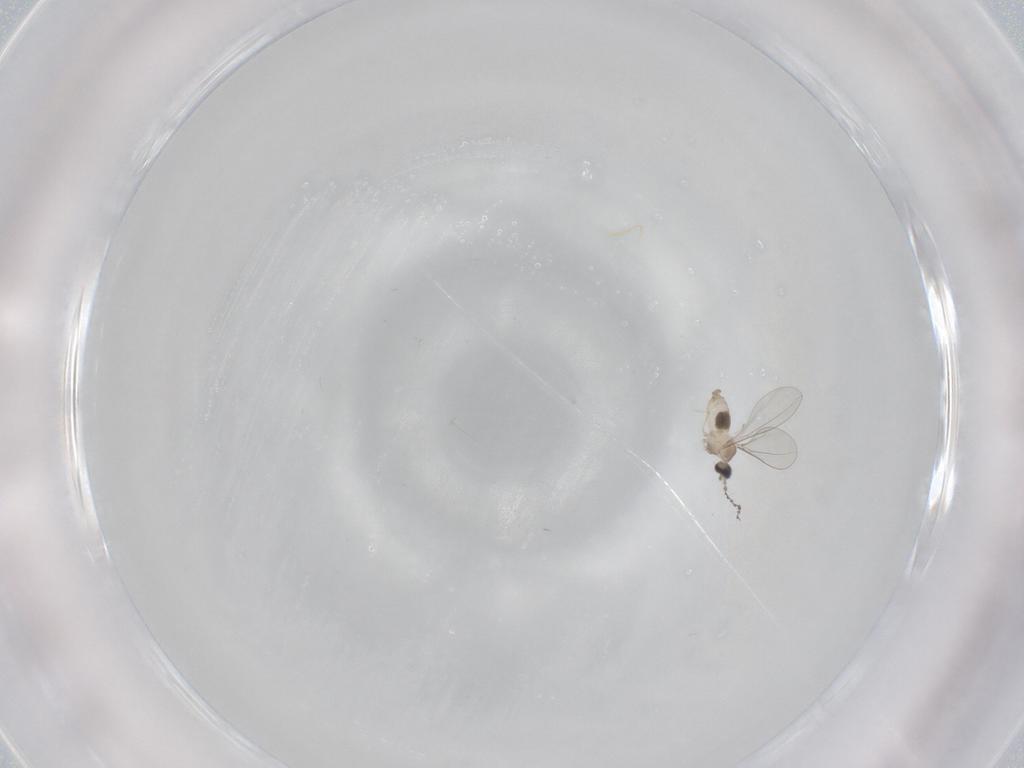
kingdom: Animalia
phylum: Arthropoda
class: Insecta
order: Diptera
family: Cecidomyiidae
